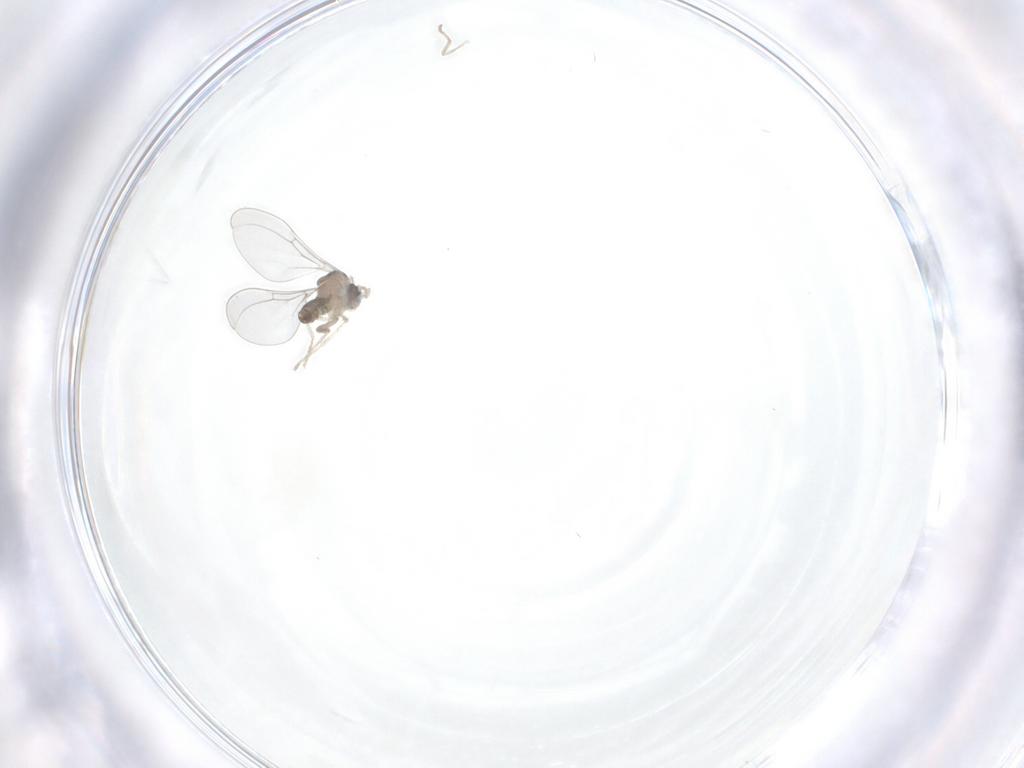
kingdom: Animalia
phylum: Arthropoda
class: Insecta
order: Diptera
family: Cecidomyiidae
